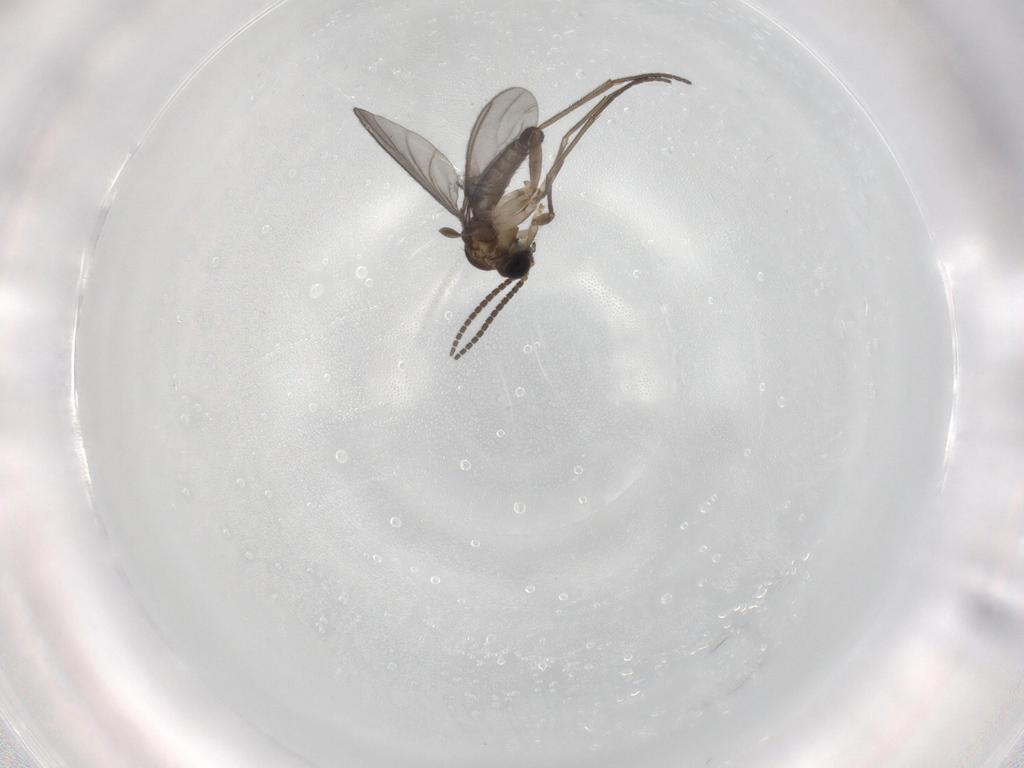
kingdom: Animalia
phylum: Arthropoda
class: Insecta
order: Diptera
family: Sciaridae
